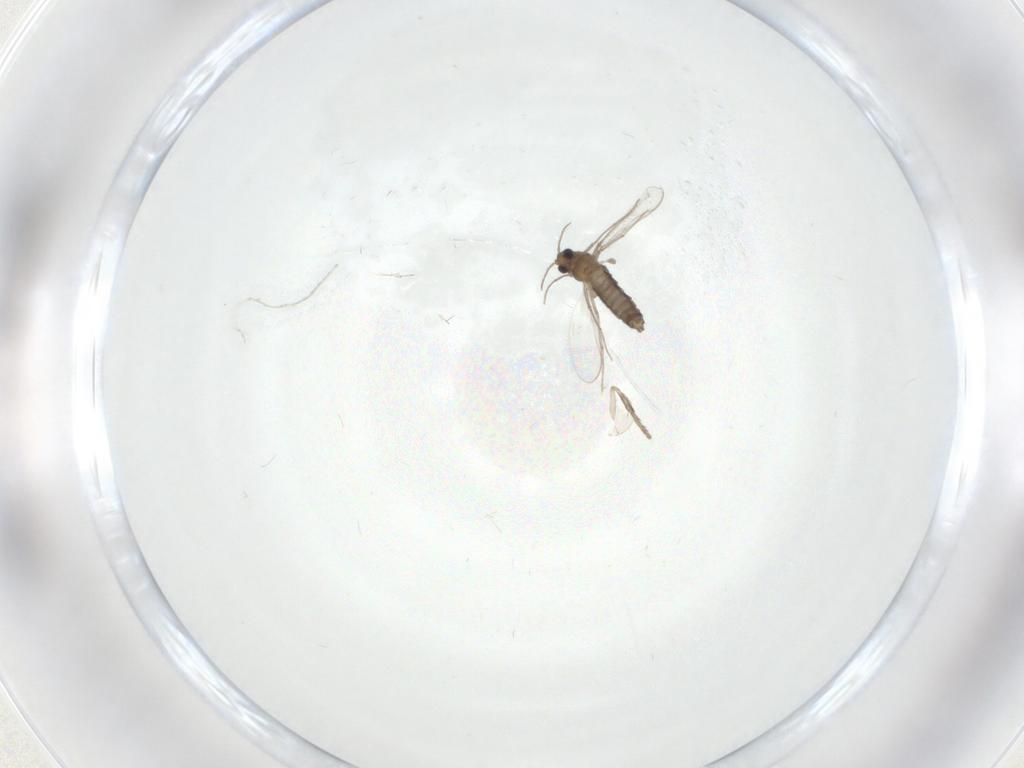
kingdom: Animalia
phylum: Arthropoda
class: Insecta
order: Diptera
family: Psychodidae
